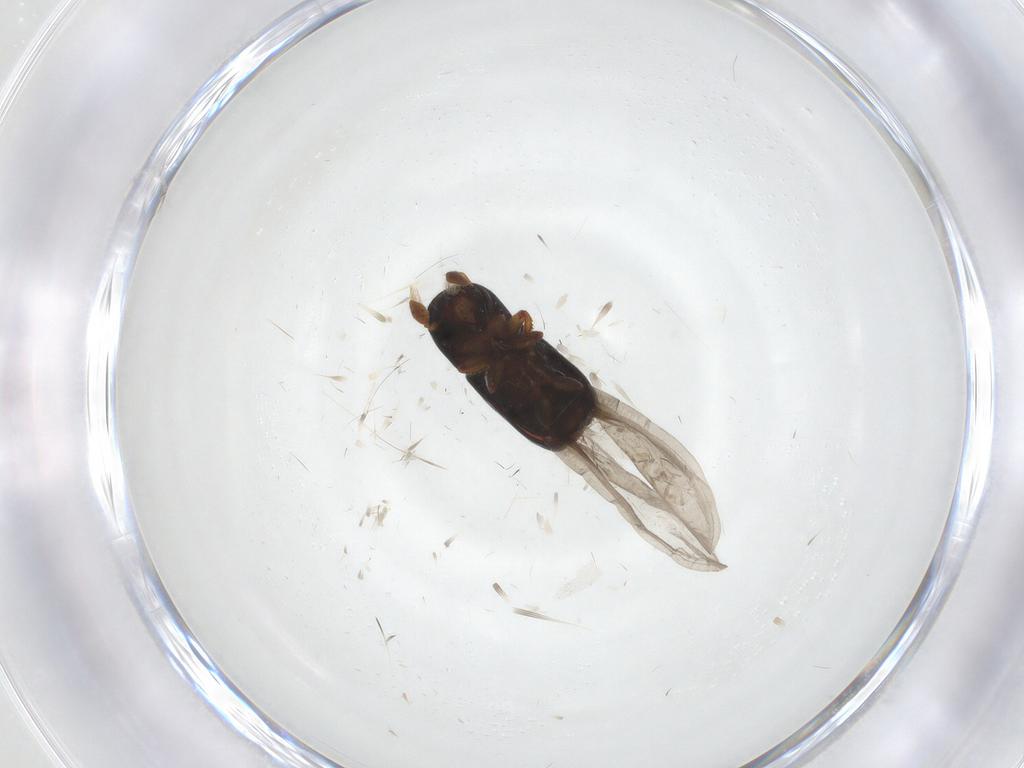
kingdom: Animalia
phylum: Arthropoda
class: Insecta
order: Coleoptera
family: Curculionidae
